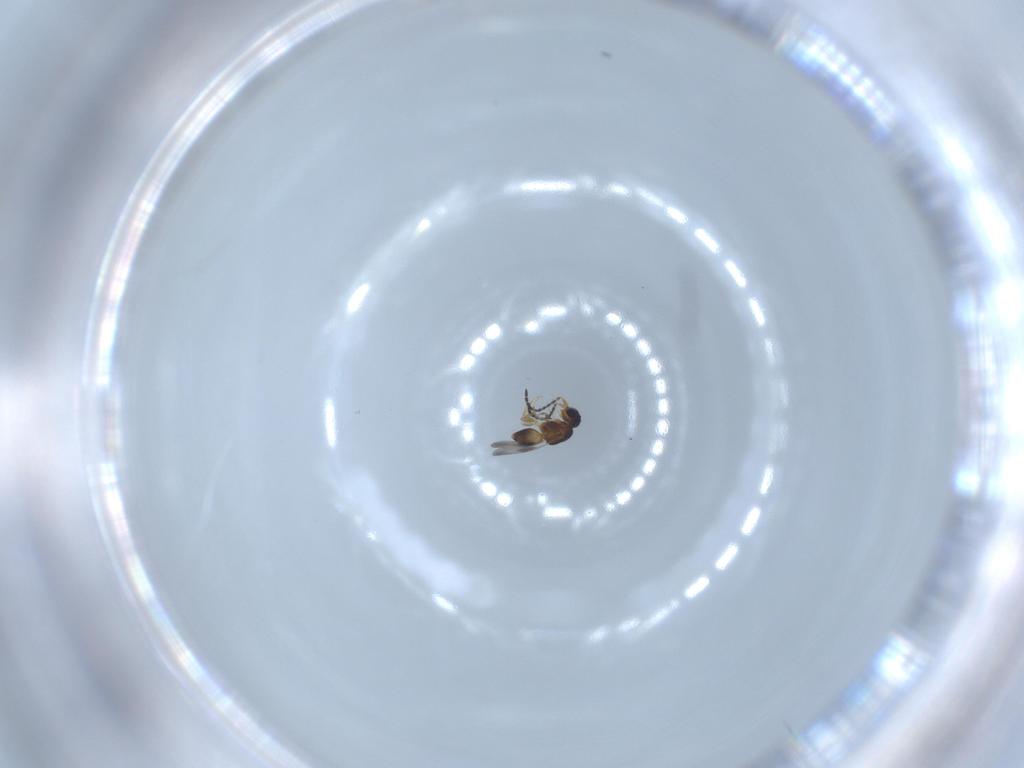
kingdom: Animalia
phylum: Arthropoda
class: Insecta
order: Hymenoptera
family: Ceraphronidae
